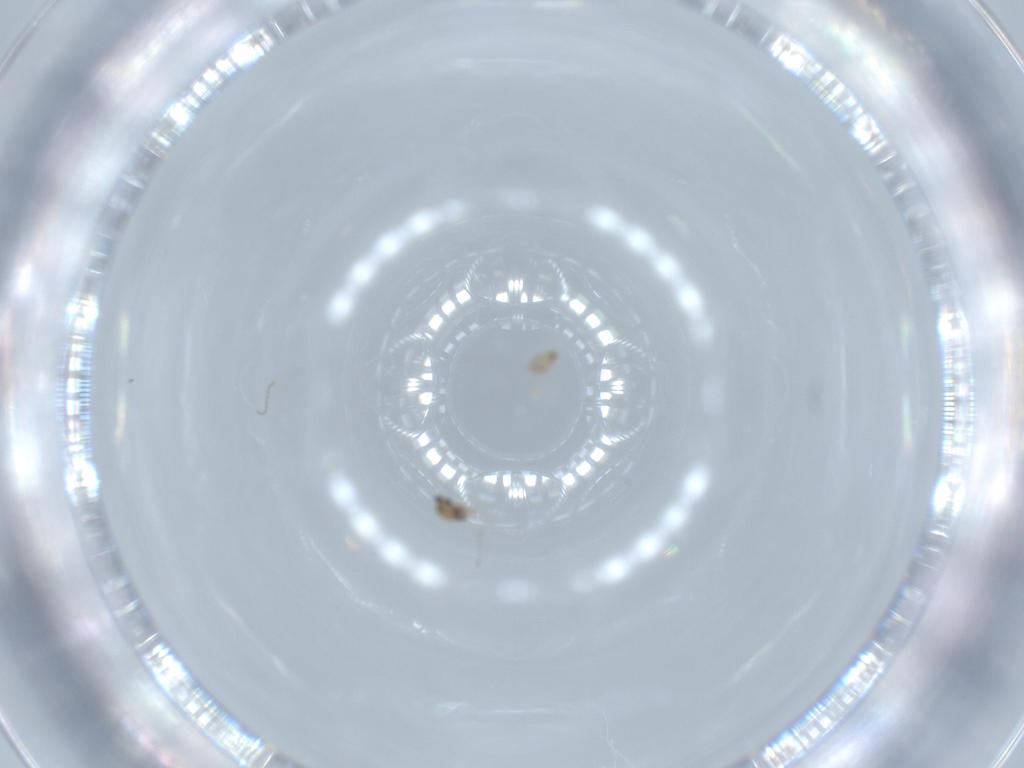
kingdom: Animalia
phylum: Arthropoda
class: Insecta
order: Diptera
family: Cecidomyiidae
